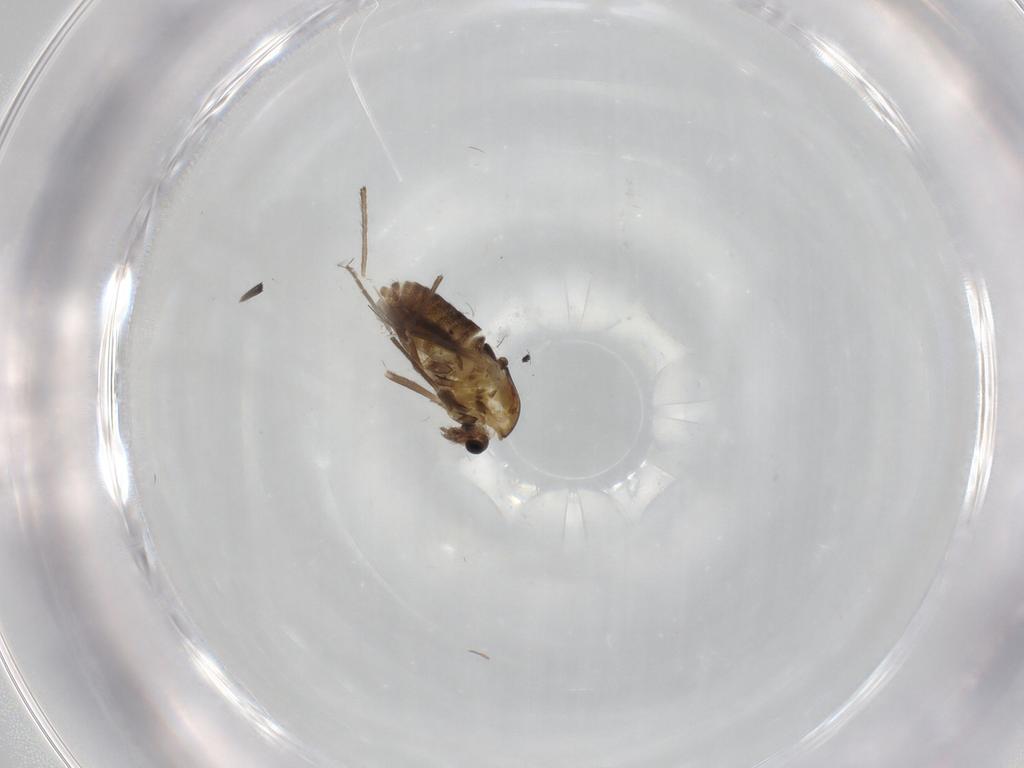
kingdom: Animalia
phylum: Arthropoda
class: Insecta
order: Diptera
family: Chironomidae
